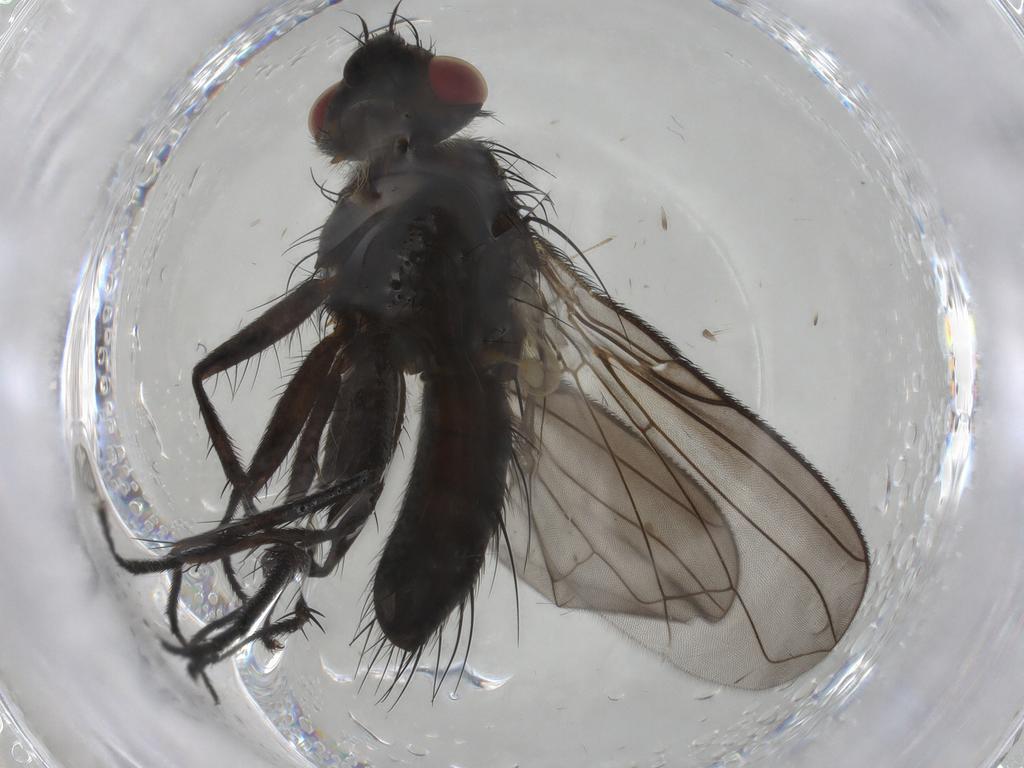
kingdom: Animalia
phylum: Arthropoda
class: Insecta
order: Diptera
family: Tachinidae
